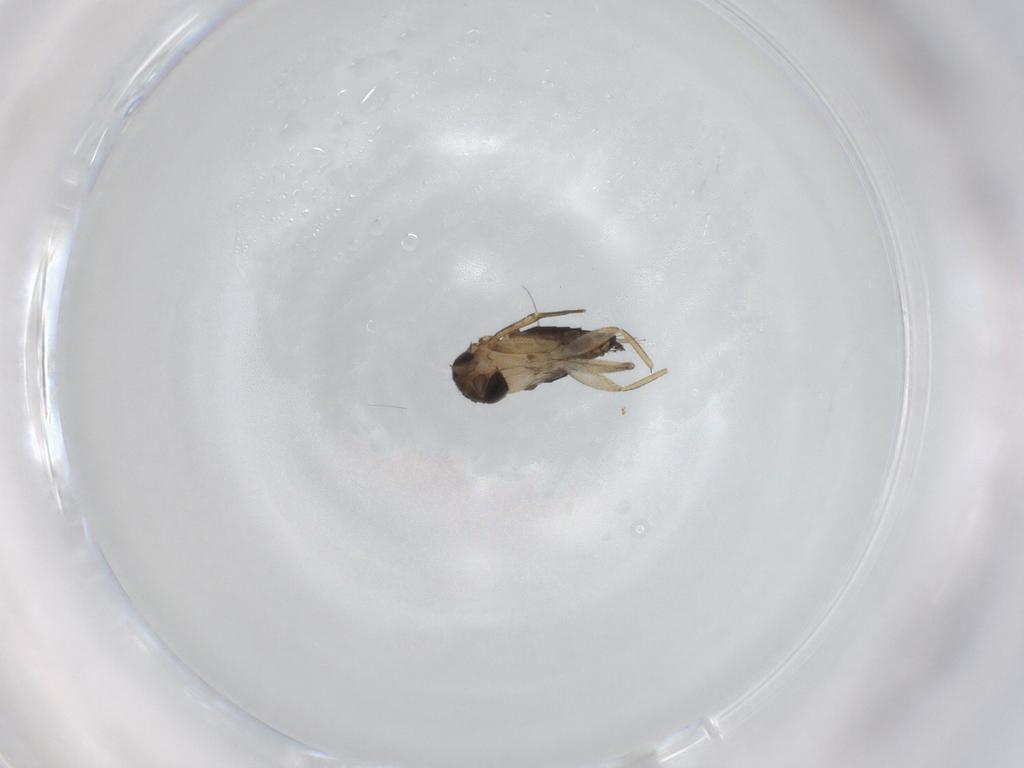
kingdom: Animalia
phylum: Arthropoda
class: Insecta
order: Diptera
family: Phoridae
